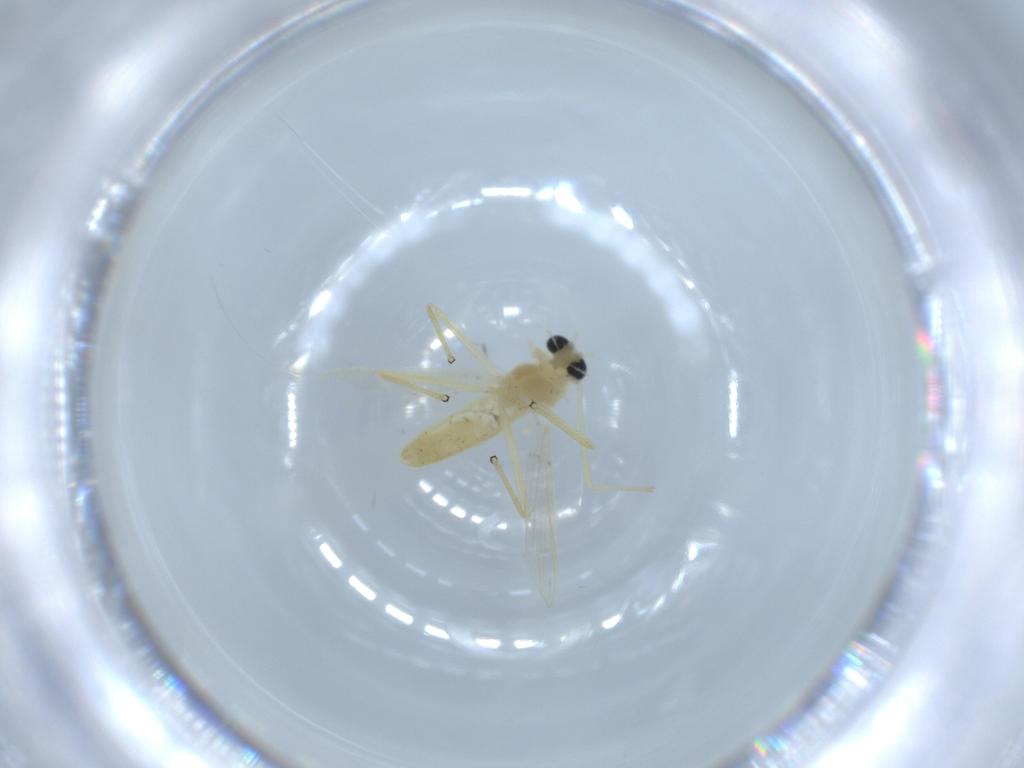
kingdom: Animalia
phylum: Arthropoda
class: Insecta
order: Diptera
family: Chironomidae
